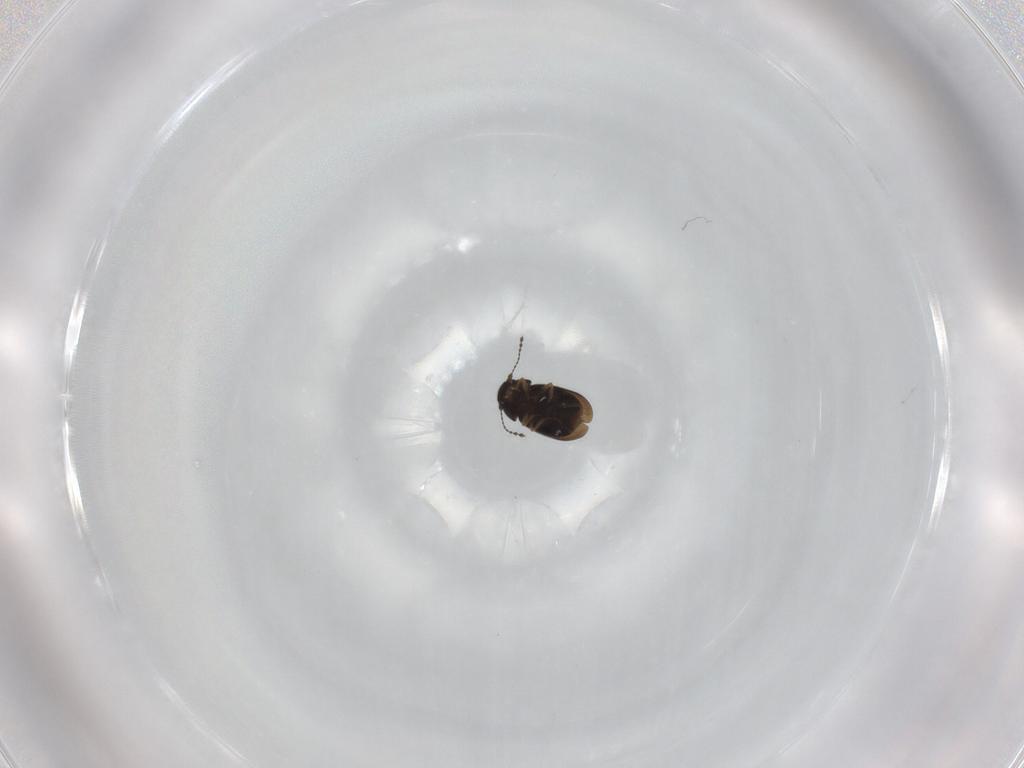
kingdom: Animalia
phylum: Arthropoda
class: Insecta
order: Coleoptera
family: Ptiliidae
